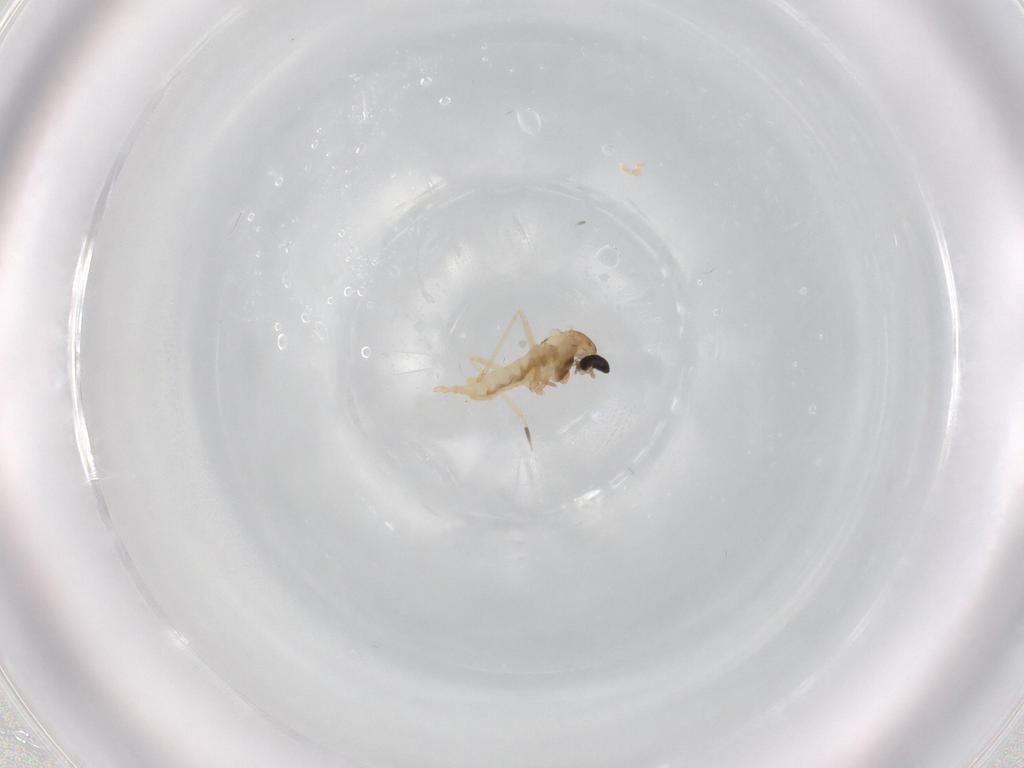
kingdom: Animalia
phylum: Arthropoda
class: Insecta
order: Diptera
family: Cecidomyiidae
